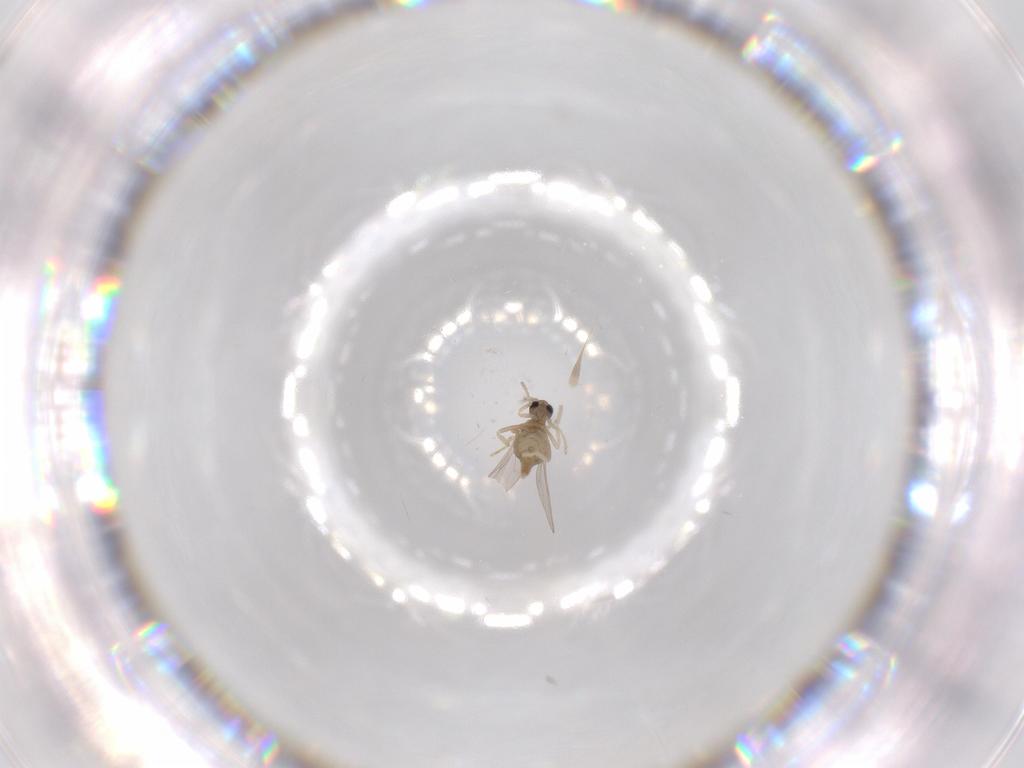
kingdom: Animalia
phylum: Arthropoda
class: Insecta
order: Diptera
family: Cecidomyiidae
